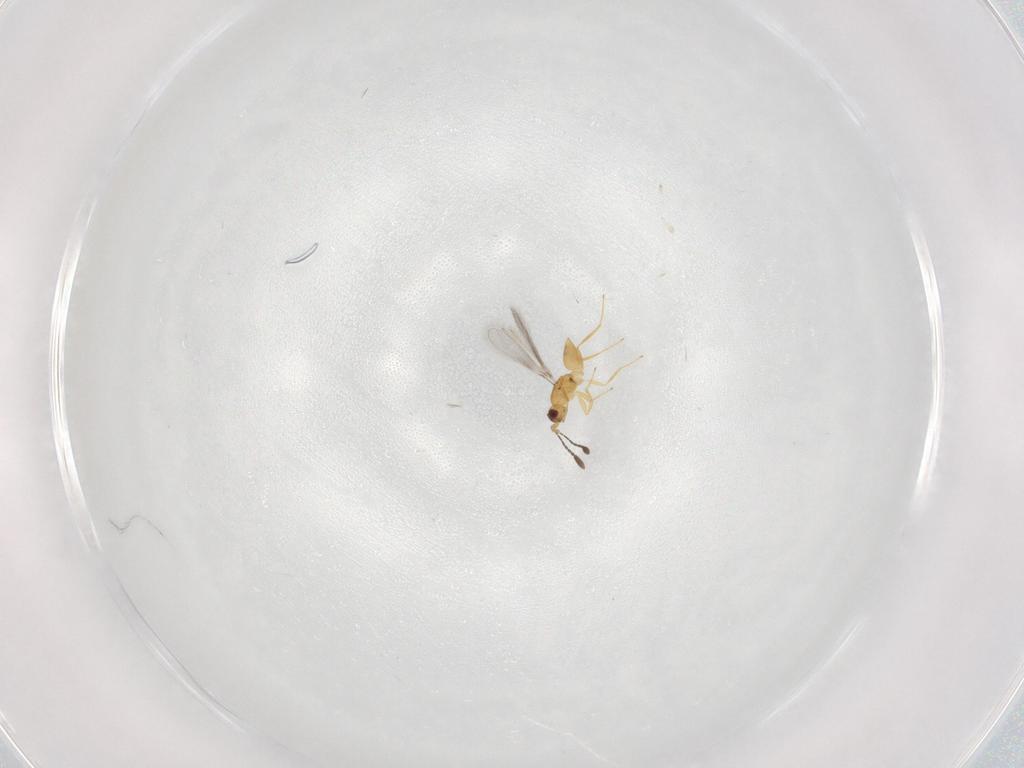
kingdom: Animalia
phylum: Arthropoda
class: Insecta
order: Hymenoptera
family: Mymaridae
